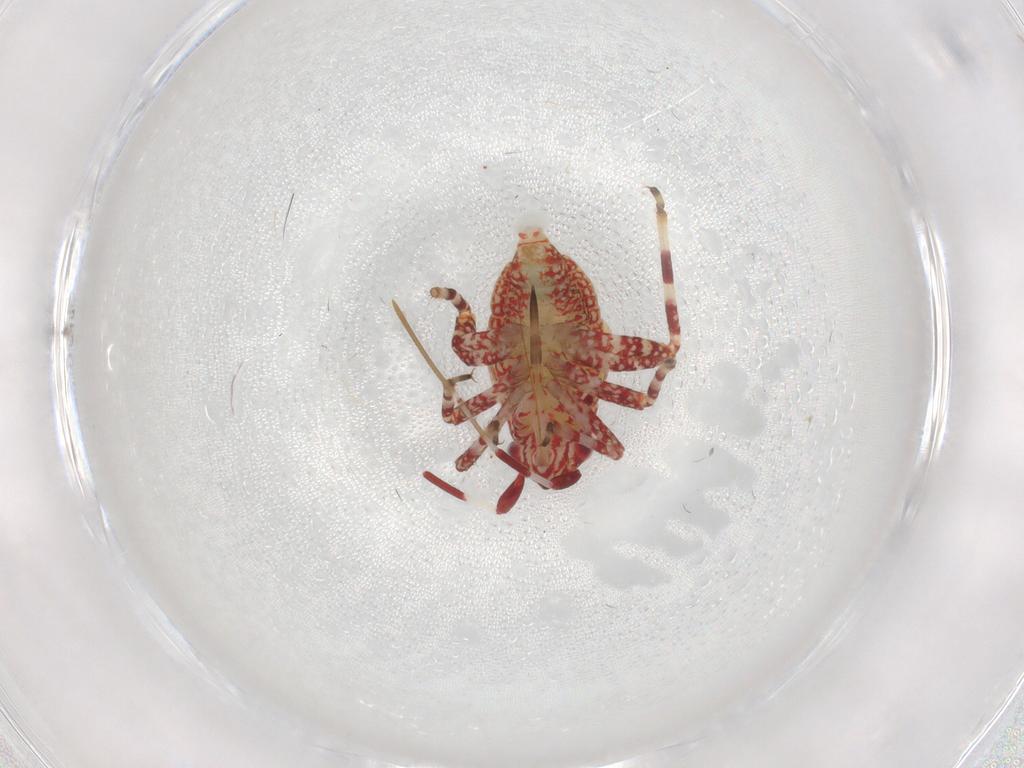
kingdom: Animalia
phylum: Arthropoda
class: Insecta
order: Hemiptera
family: Miridae
